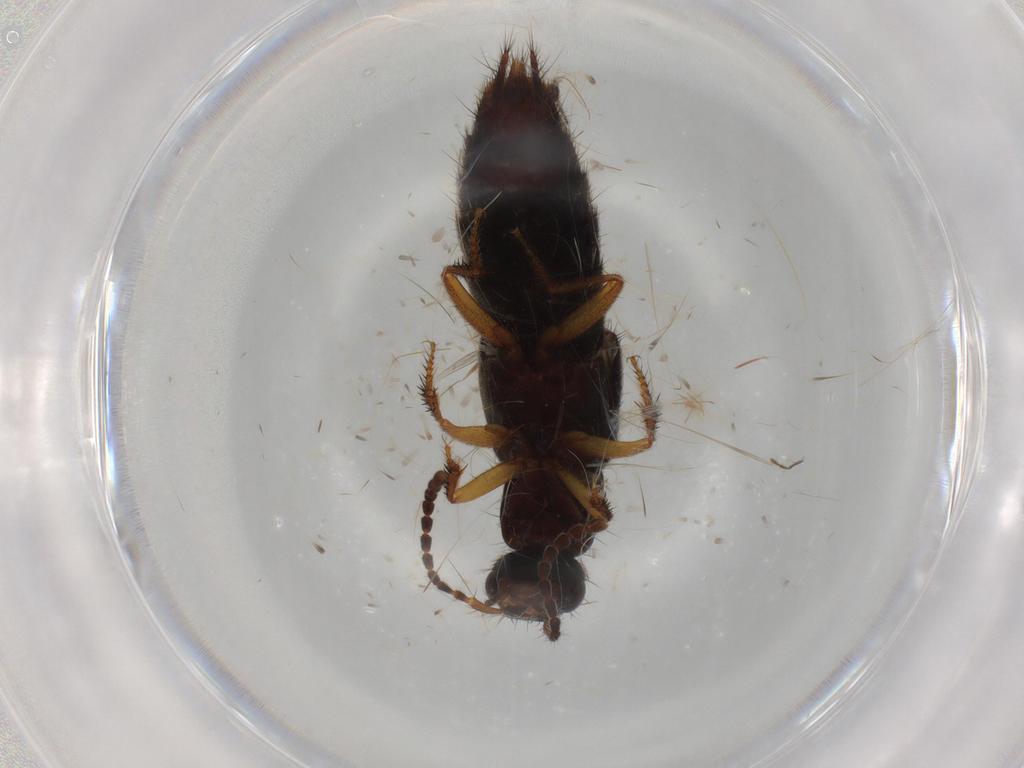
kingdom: Animalia
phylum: Arthropoda
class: Insecta
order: Coleoptera
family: Staphylinidae
